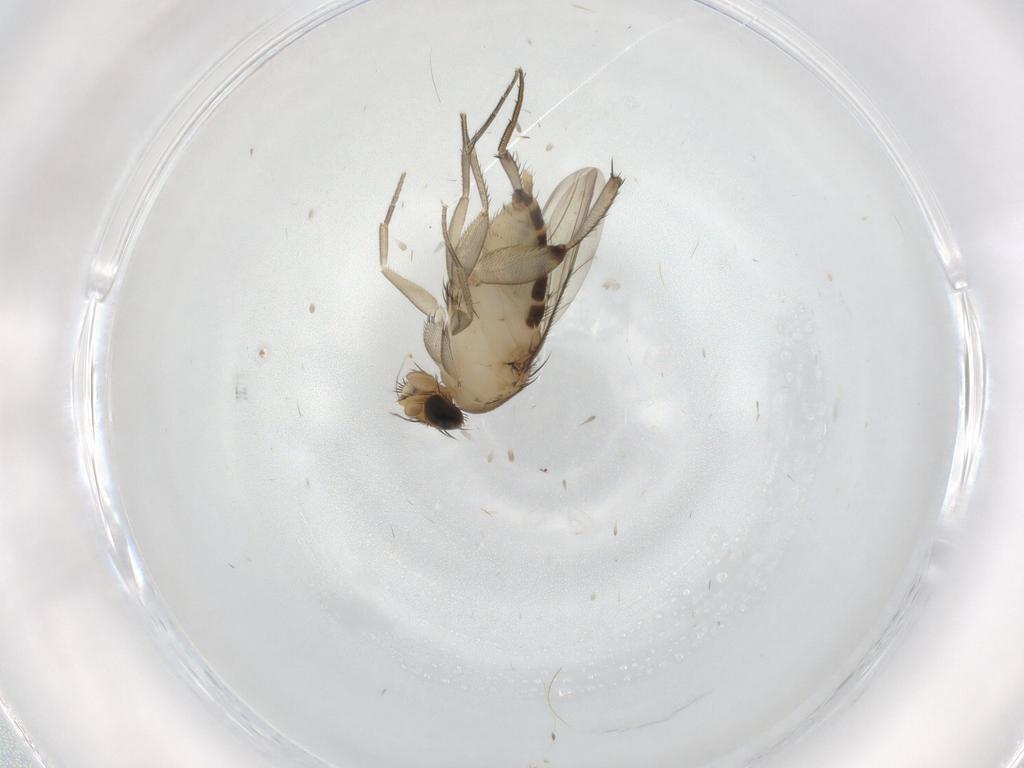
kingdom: Animalia
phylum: Arthropoda
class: Insecta
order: Diptera
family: Phoridae
